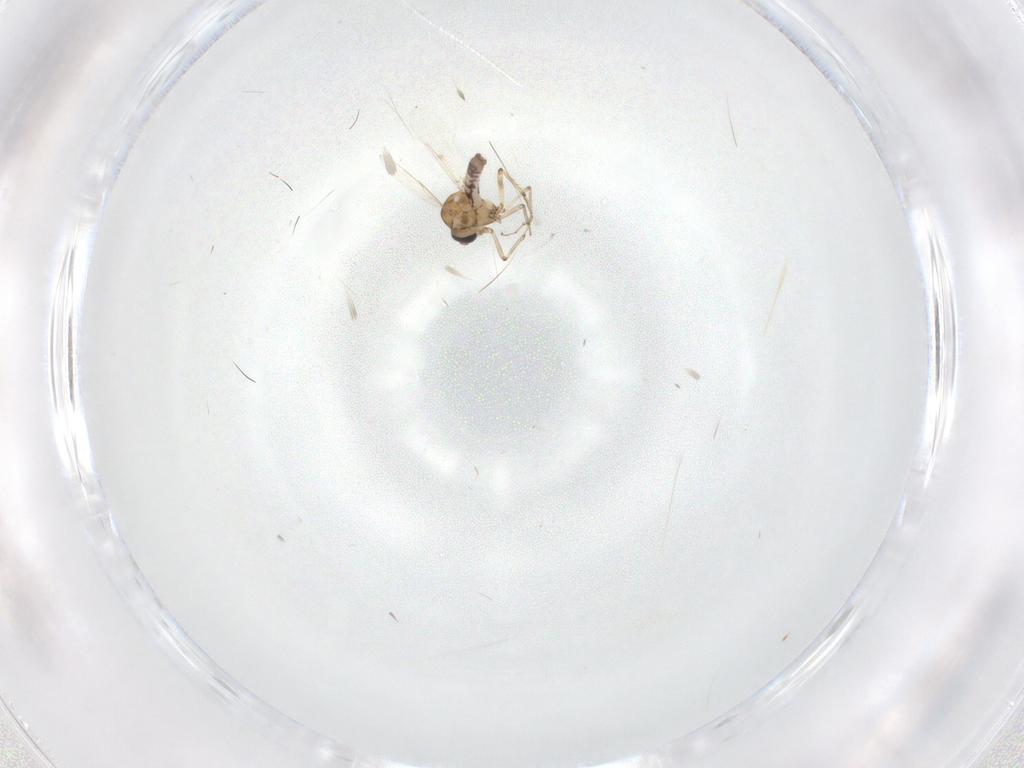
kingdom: Animalia
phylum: Arthropoda
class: Insecta
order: Diptera
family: Ceratopogonidae
